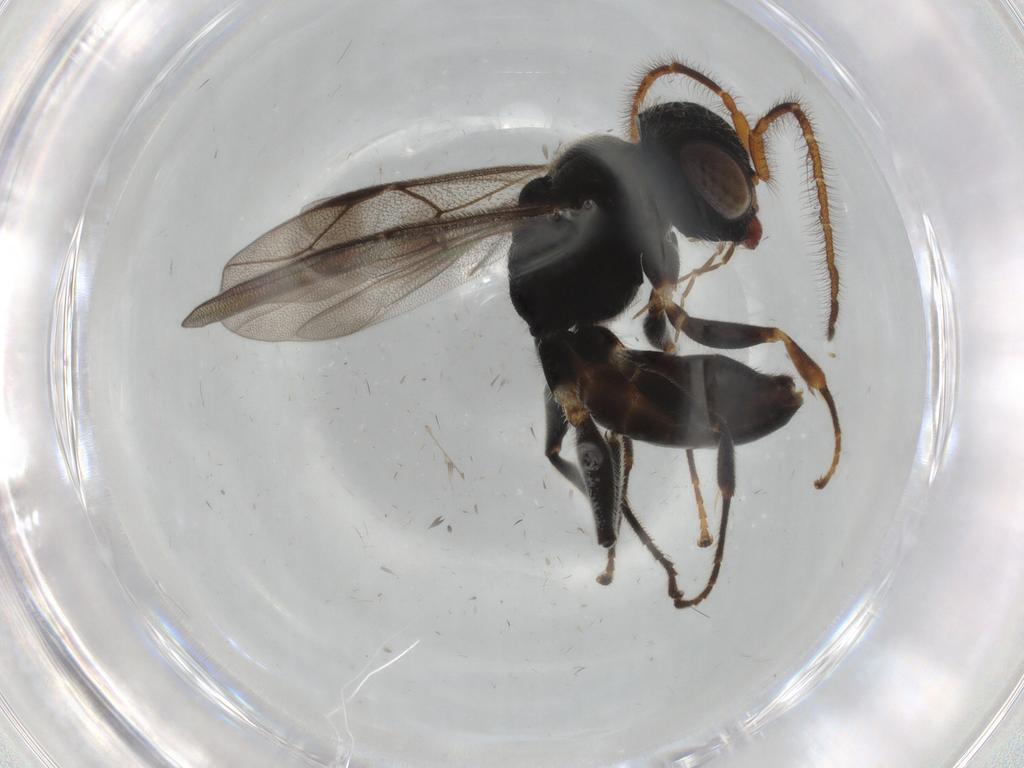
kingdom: Animalia
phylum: Arthropoda
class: Insecta
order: Hymenoptera
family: Dryinidae
